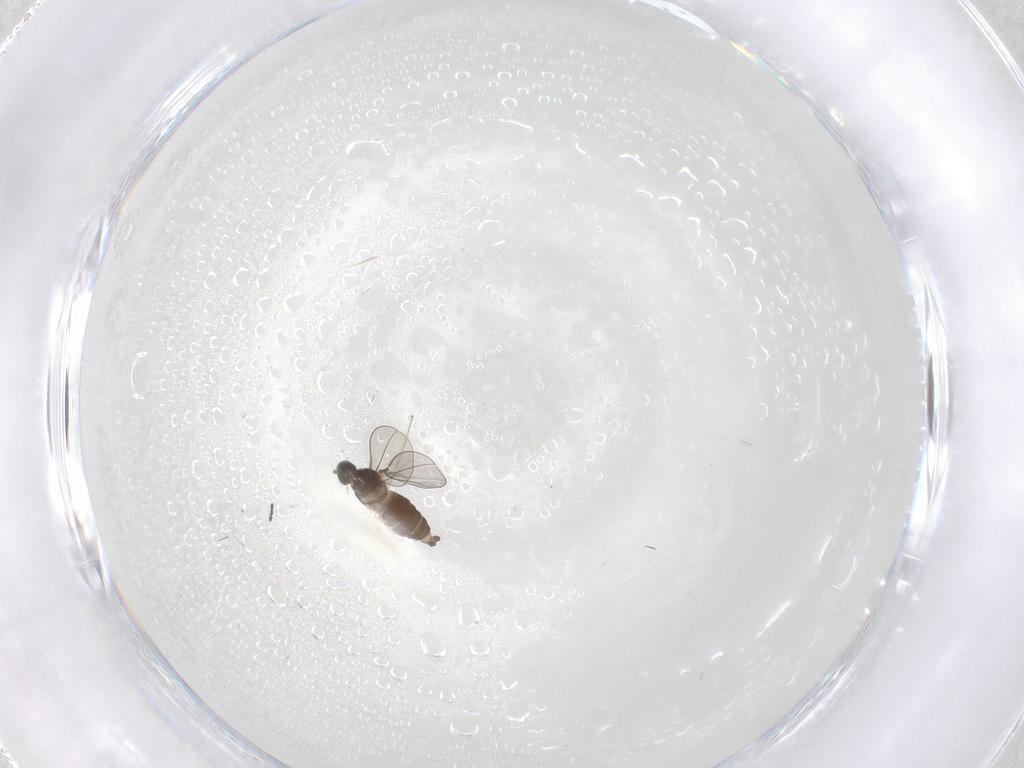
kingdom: Animalia
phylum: Arthropoda
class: Insecta
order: Diptera
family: Cecidomyiidae
